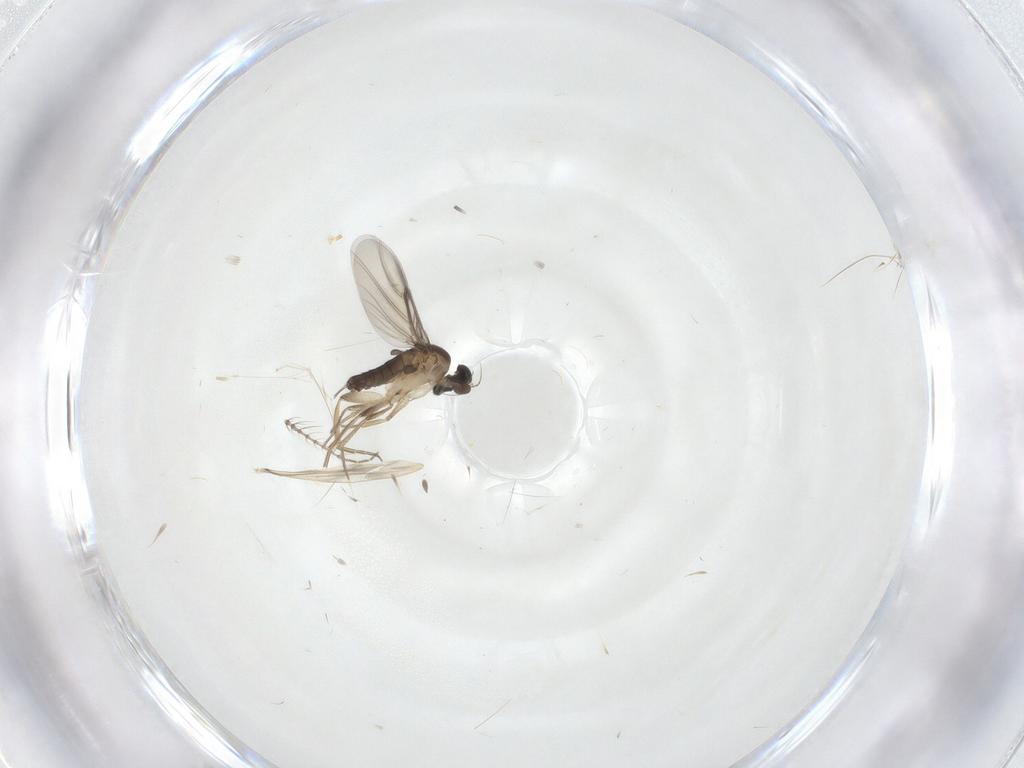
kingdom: Animalia
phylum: Arthropoda
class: Insecta
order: Diptera
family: Phoridae
